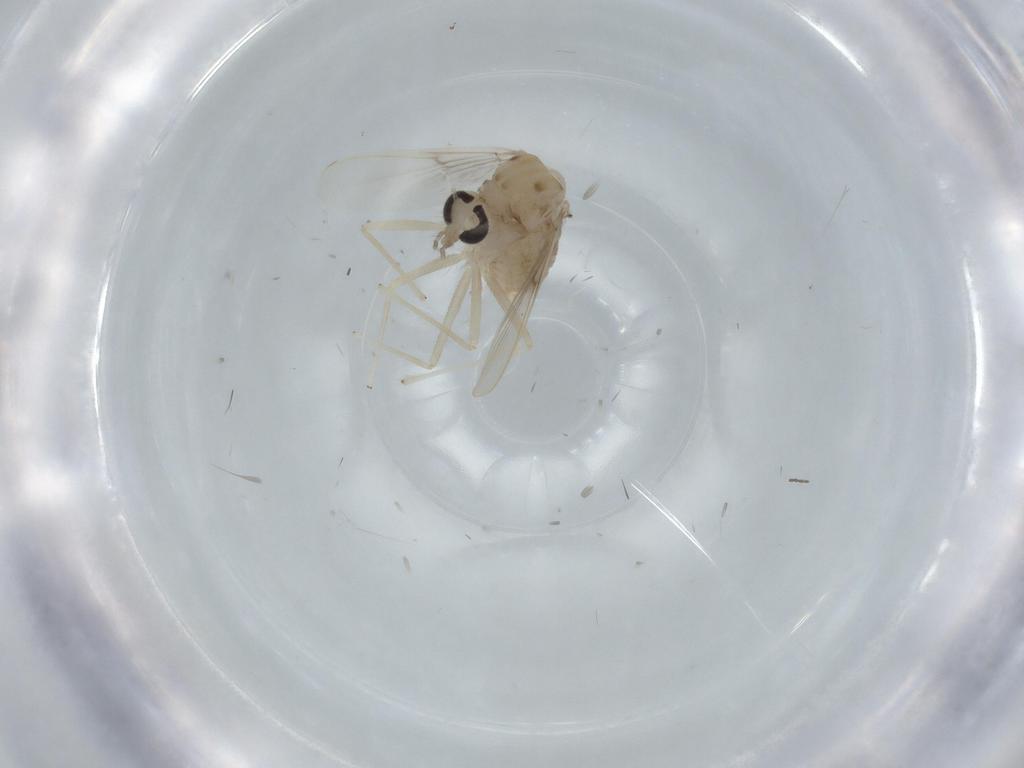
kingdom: Animalia
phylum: Arthropoda
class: Insecta
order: Diptera
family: Chironomidae
